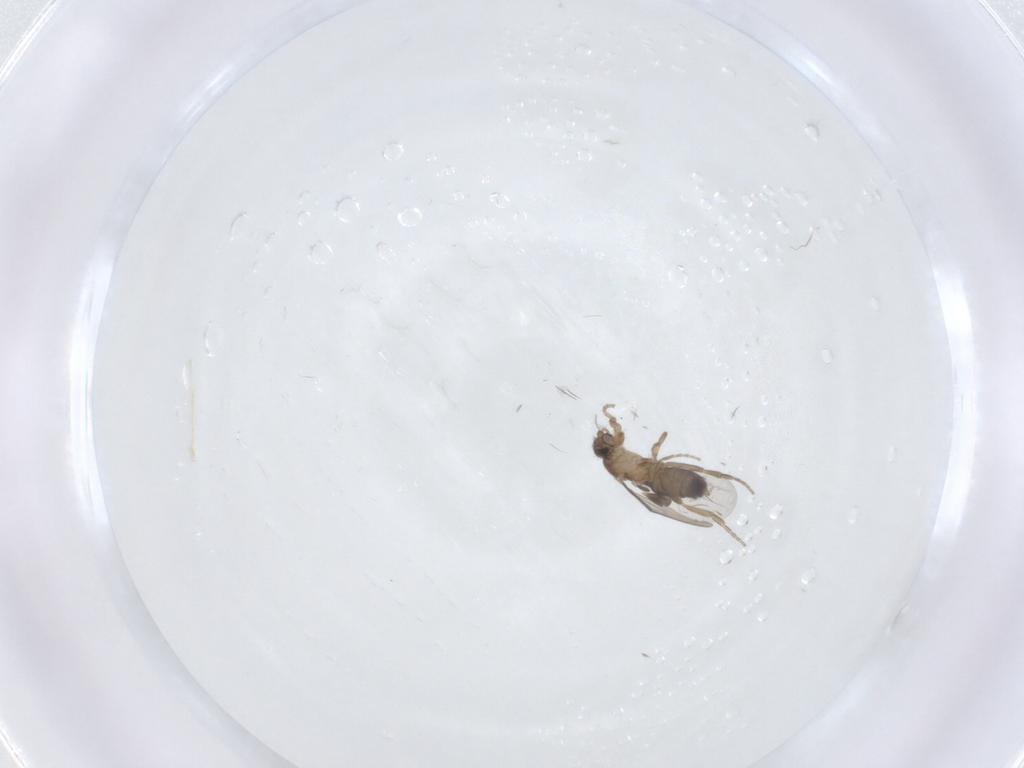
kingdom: Animalia
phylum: Arthropoda
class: Insecta
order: Diptera
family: Phoridae
